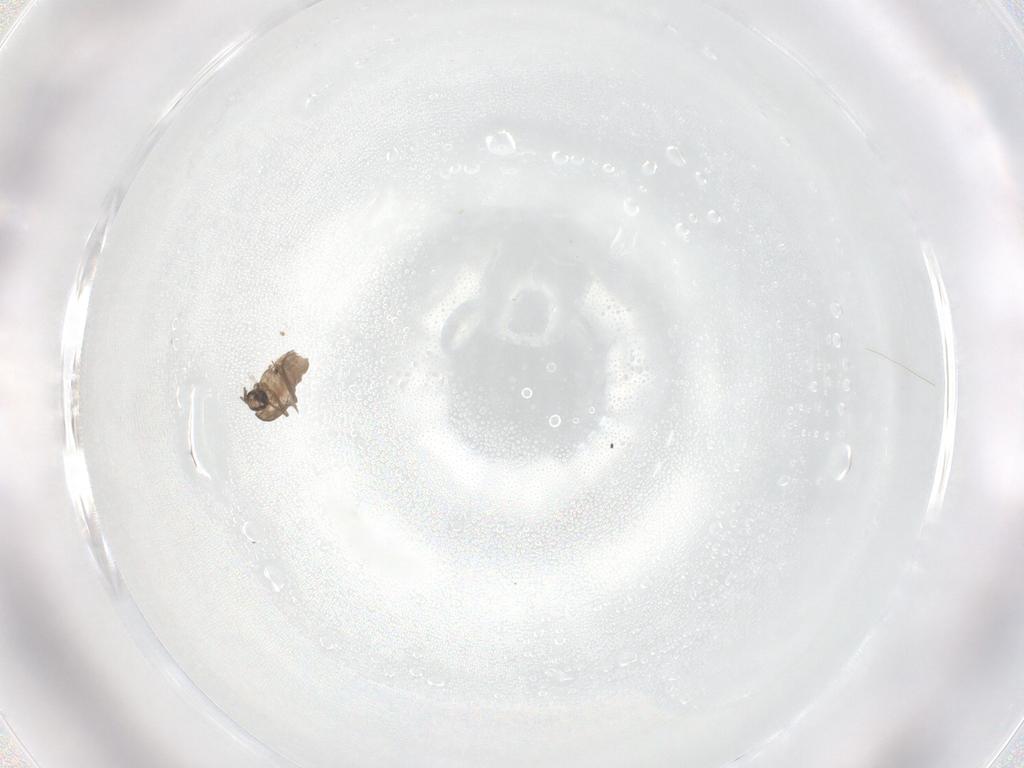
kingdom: Animalia
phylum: Arthropoda
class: Insecta
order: Diptera
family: Chironomidae
